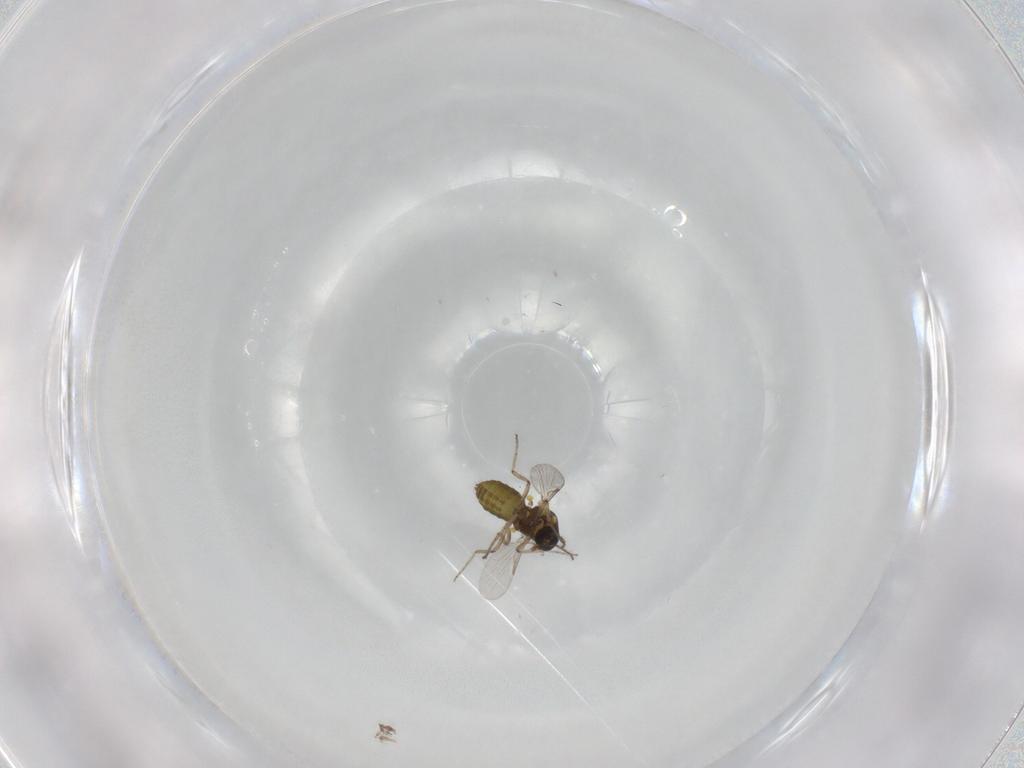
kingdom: Animalia
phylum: Arthropoda
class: Insecta
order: Diptera
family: Ceratopogonidae
